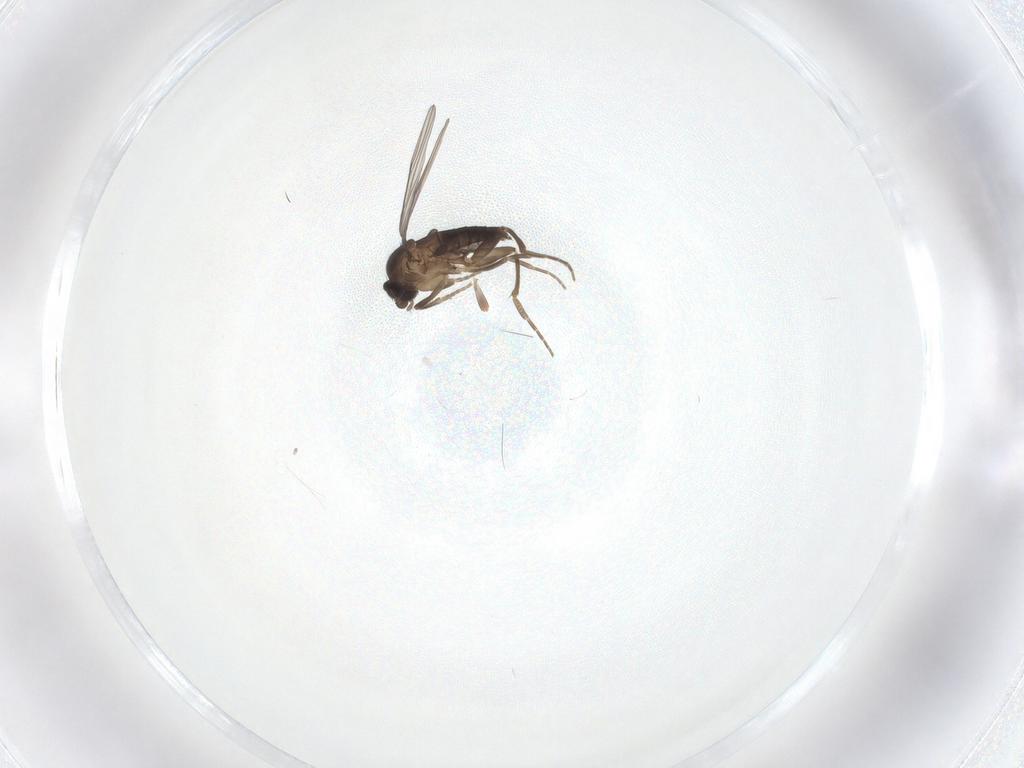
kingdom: Animalia
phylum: Arthropoda
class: Insecta
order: Diptera
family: Phoridae
